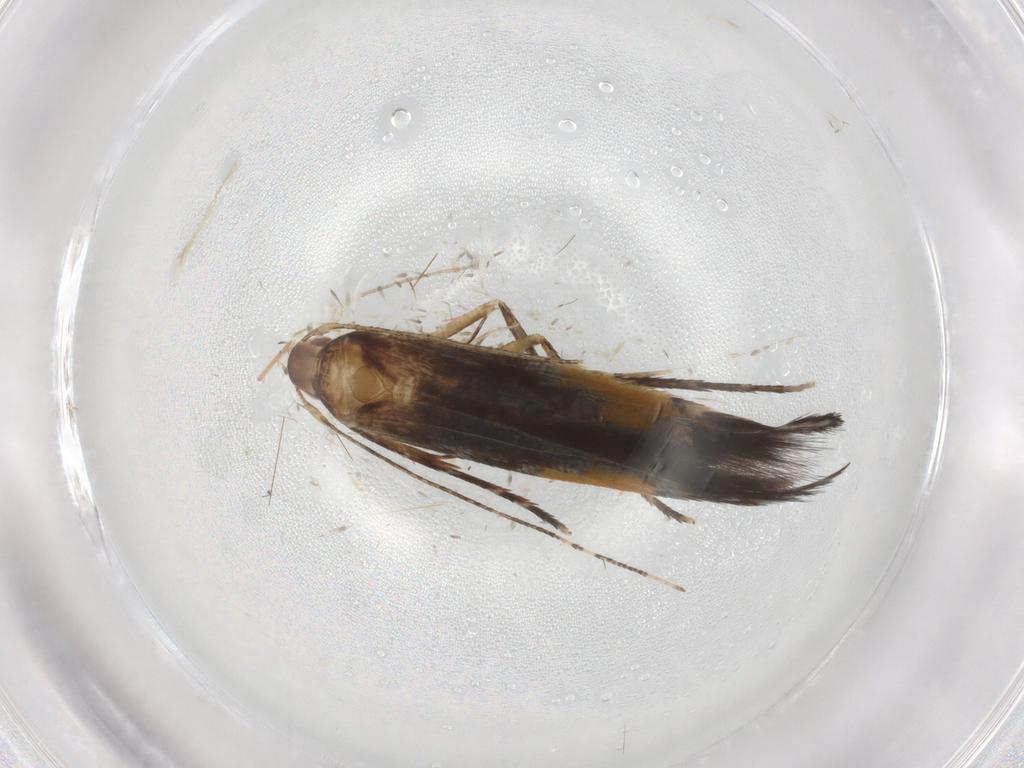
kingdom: Animalia
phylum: Arthropoda
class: Insecta
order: Lepidoptera
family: Cosmopterigidae
